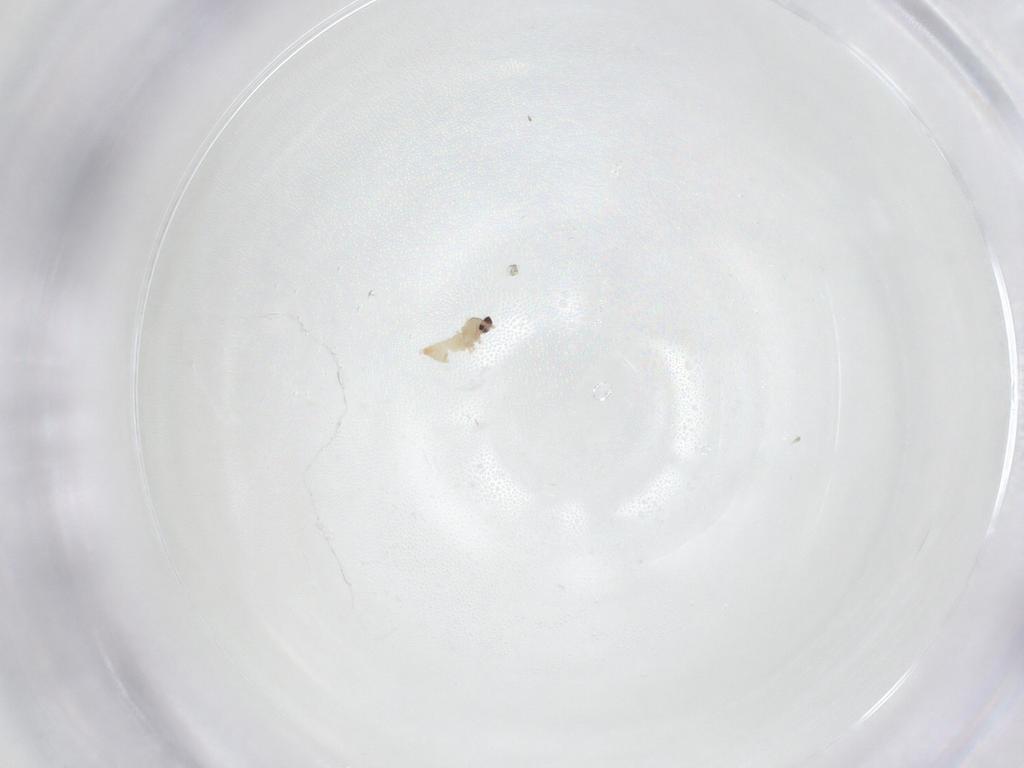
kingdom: Animalia
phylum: Arthropoda
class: Insecta
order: Diptera
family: Cecidomyiidae
